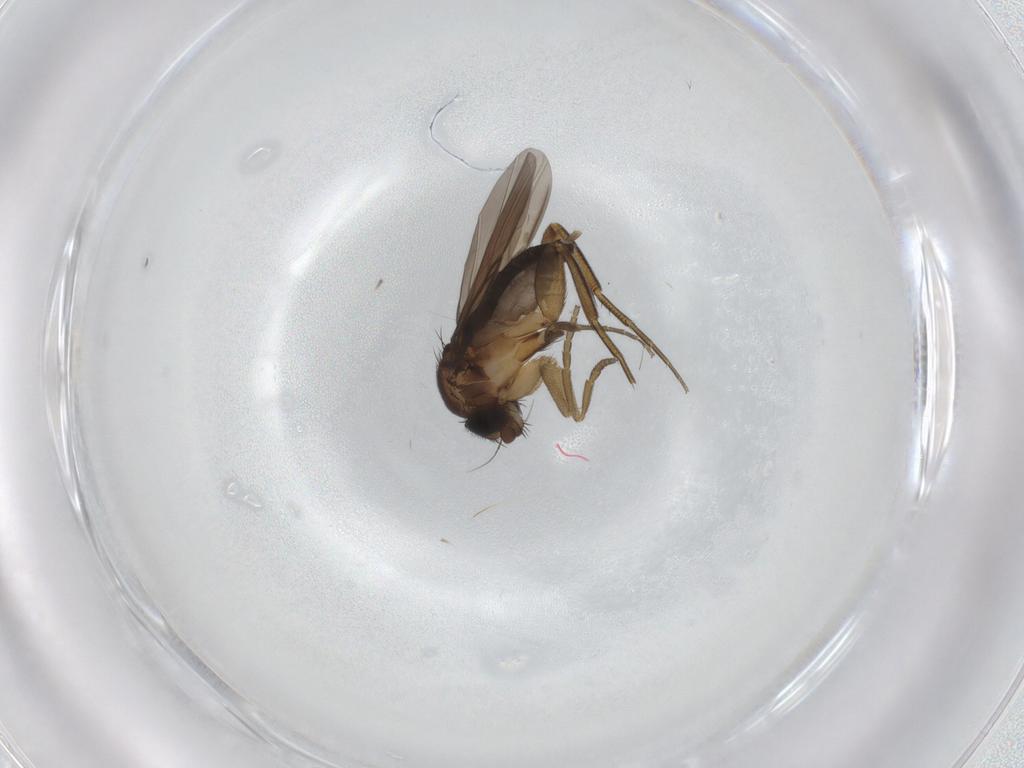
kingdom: Animalia
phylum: Arthropoda
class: Insecta
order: Diptera
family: Phoridae
